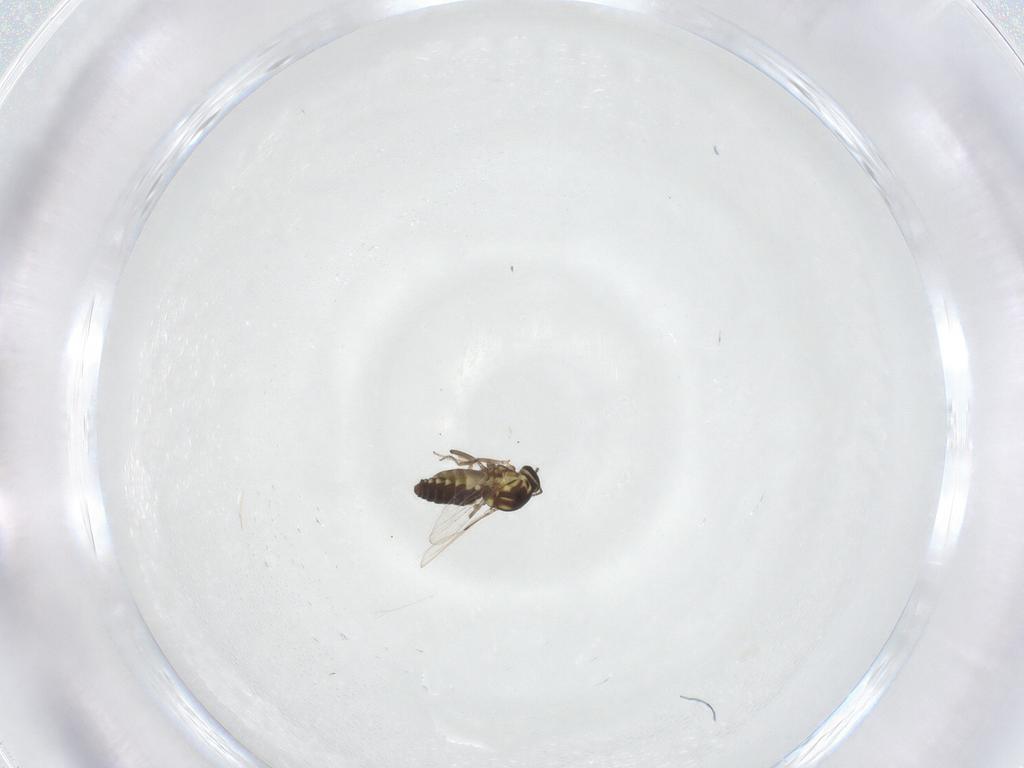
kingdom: Animalia
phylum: Arthropoda
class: Insecta
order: Diptera
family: Ceratopogonidae
